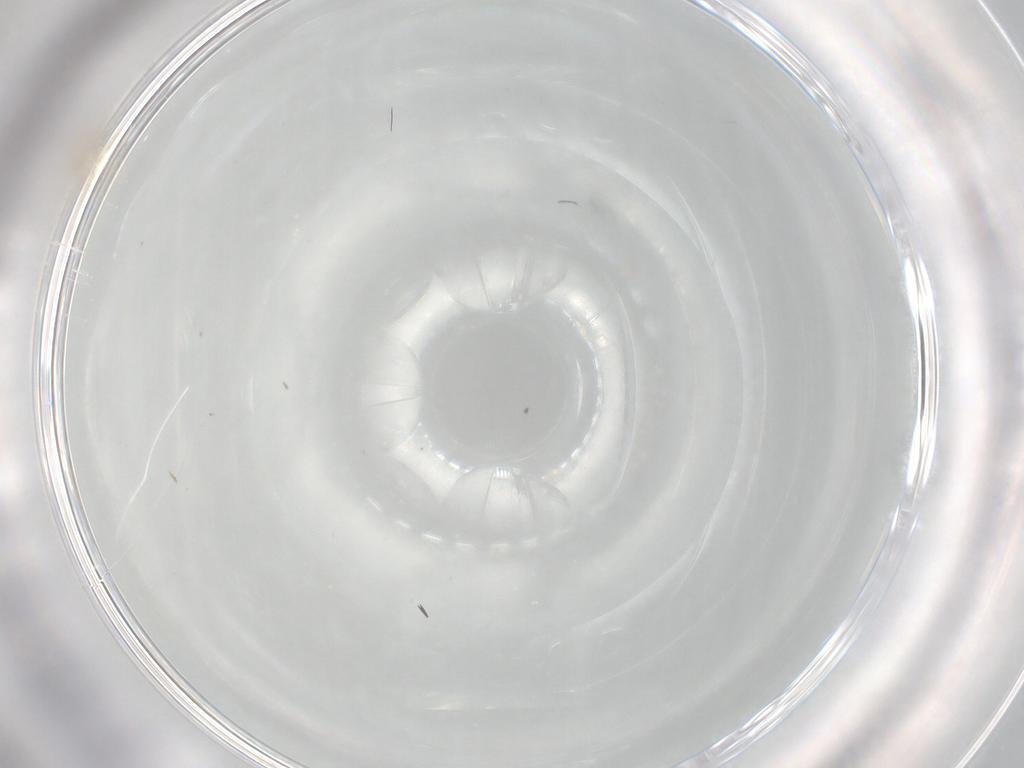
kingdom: Animalia
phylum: Arthropoda
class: Insecta
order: Diptera
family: Cecidomyiidae
